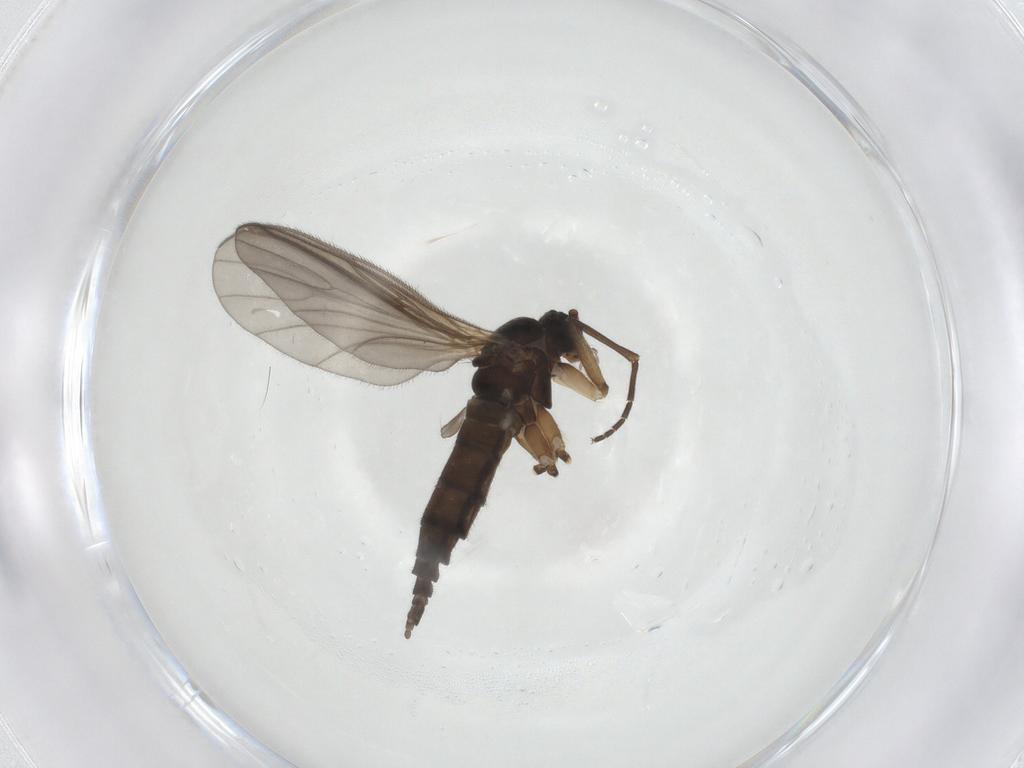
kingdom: Animalia
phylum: Arthropoda
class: Insecta
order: Diptera
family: Sciaridae
